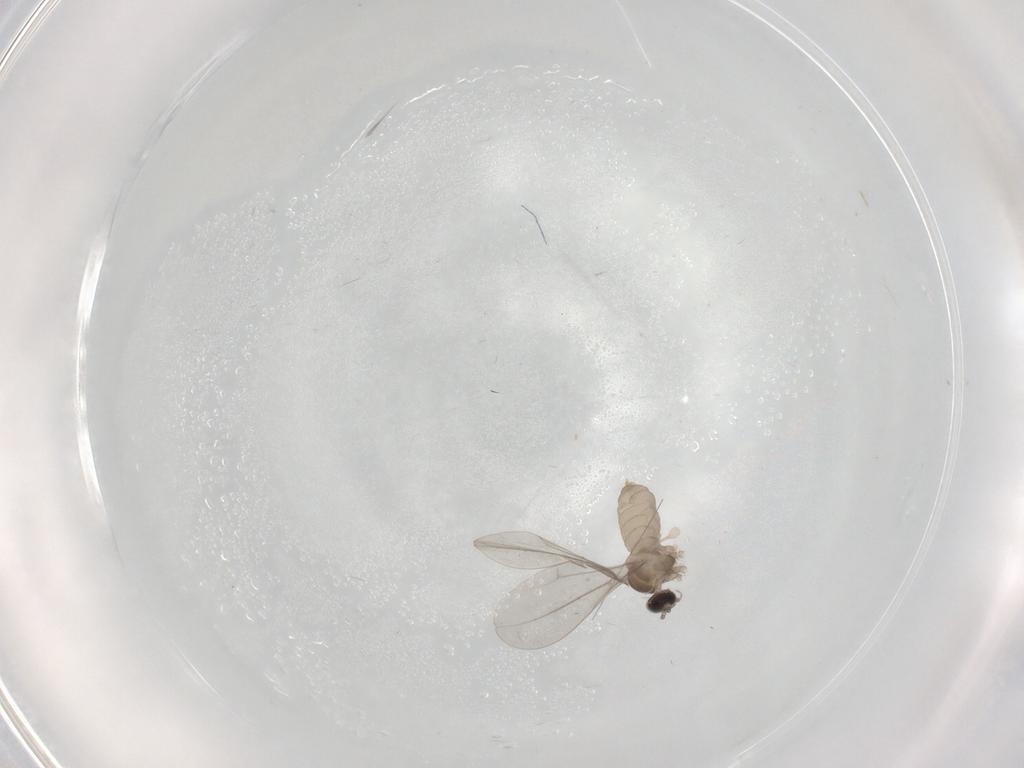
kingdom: Animalia
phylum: Arthropoda
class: Insecta
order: Diptera
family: Cecidomyiidae
